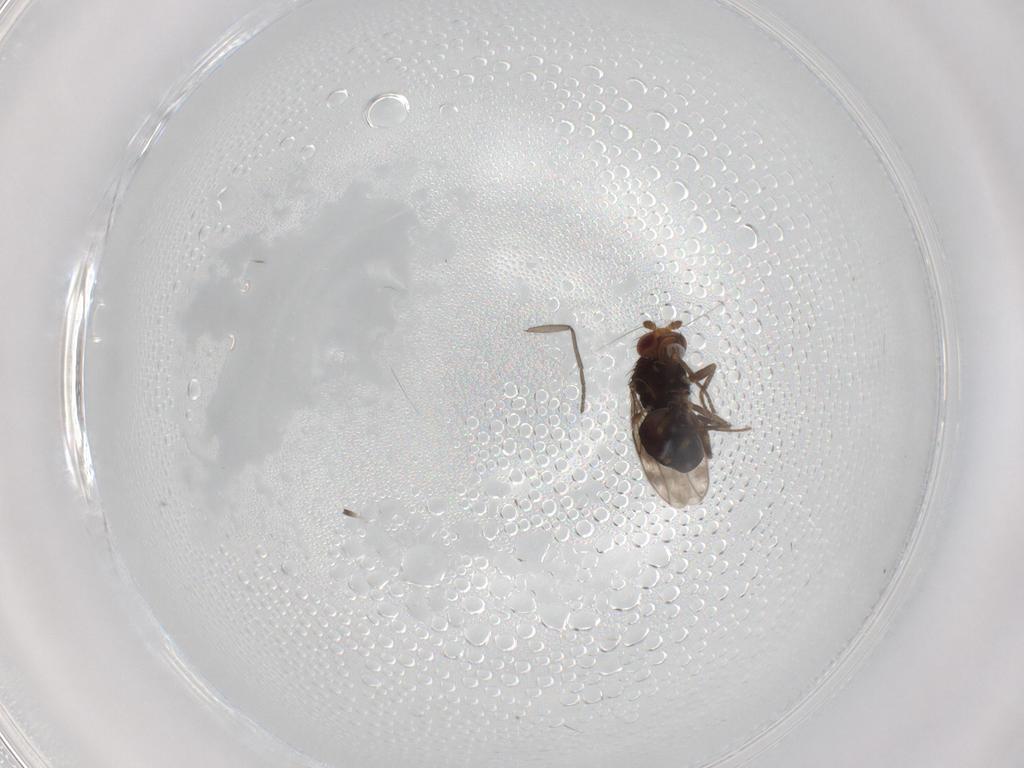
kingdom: Animalia
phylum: Arthropoda
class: Insecta
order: Diptera
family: Sphaeroceridae
